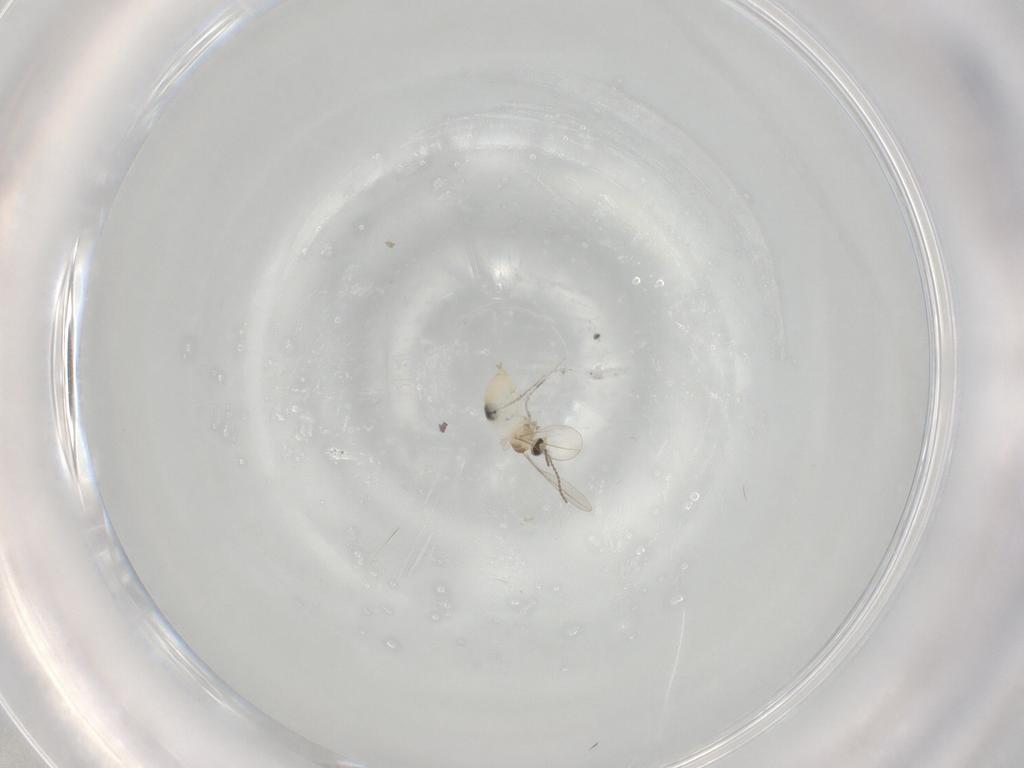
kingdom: Animalia
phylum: Arthropoda
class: Insecta
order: Diptera
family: Cecidomyiidae
